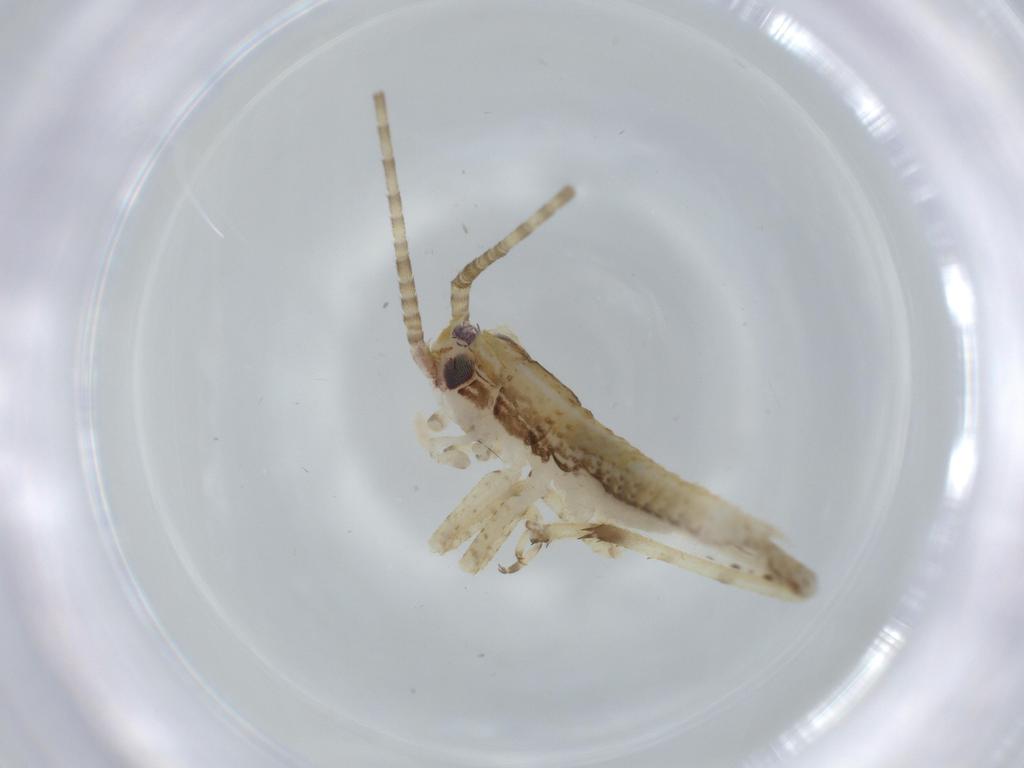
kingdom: Animalia
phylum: Arthropoda
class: Insecta
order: Orthoptera
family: Gryllidae
